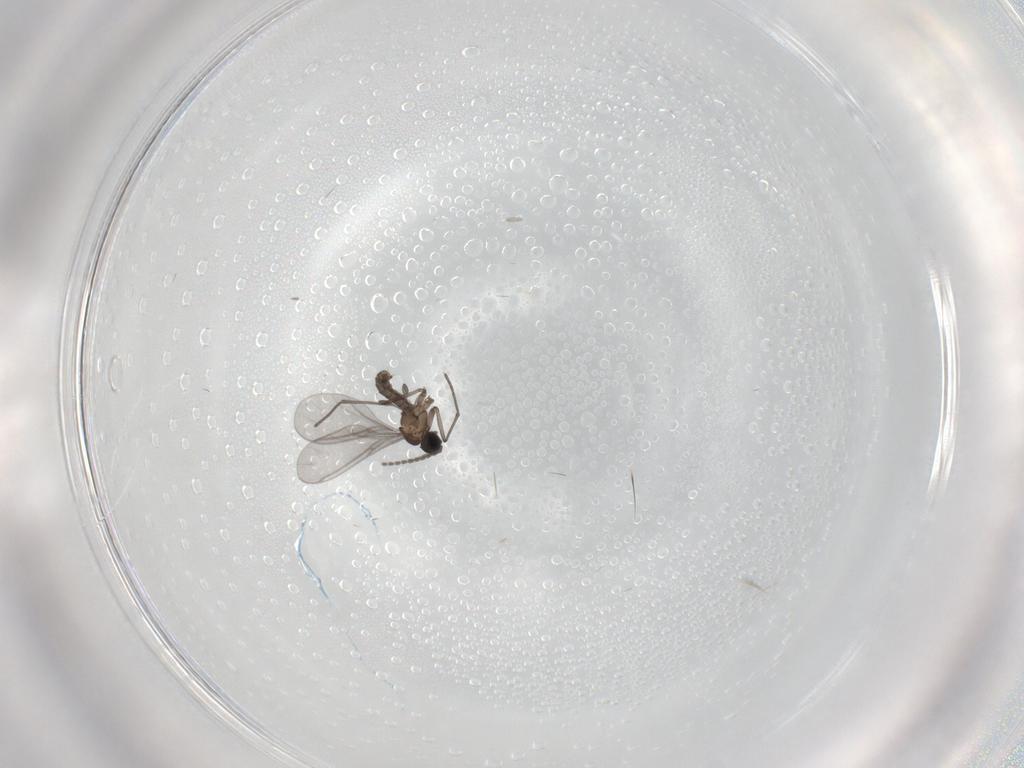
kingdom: Animalia
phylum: Arthropoda
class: Insecta
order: Diptera
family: Sciaridae
